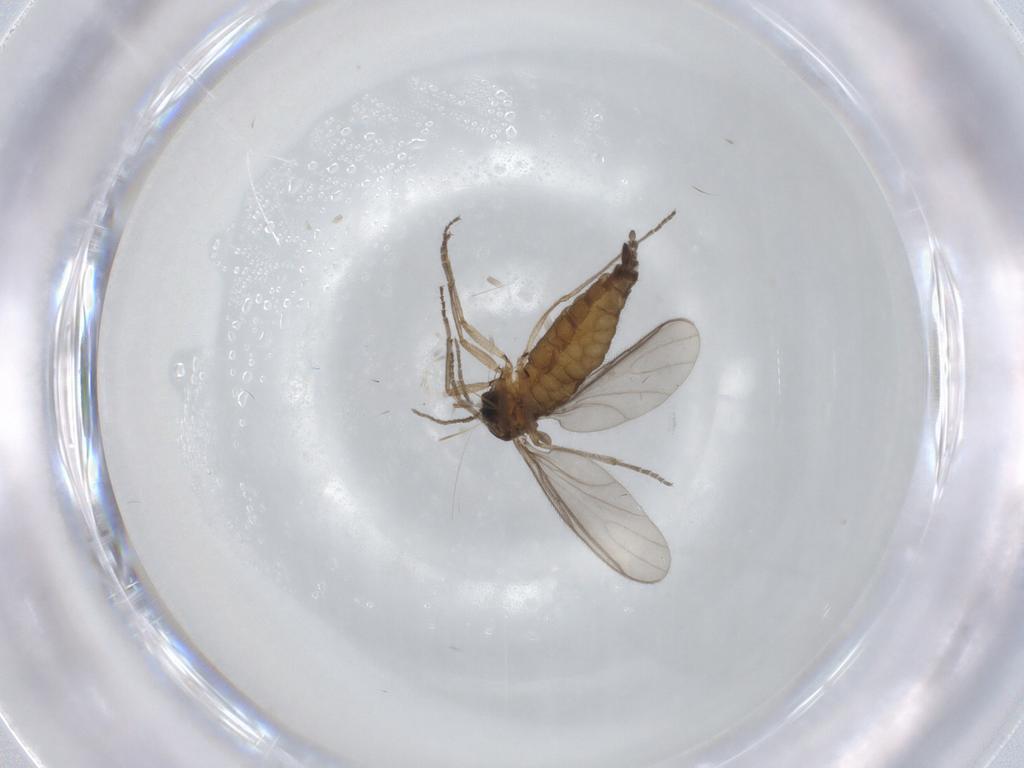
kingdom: Animalia
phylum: Arthropoda
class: Insecta
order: Diptera
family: Sciaridae
